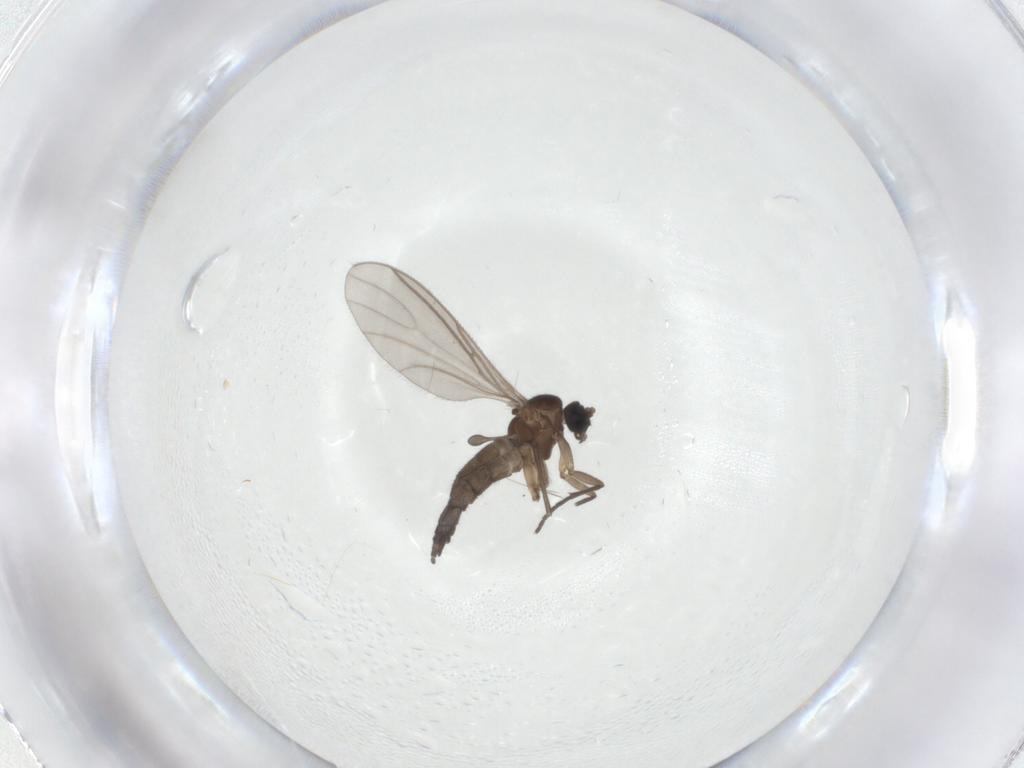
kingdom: Animalia
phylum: Arthropoda
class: Insecta
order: Diptera
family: Sciaridae
